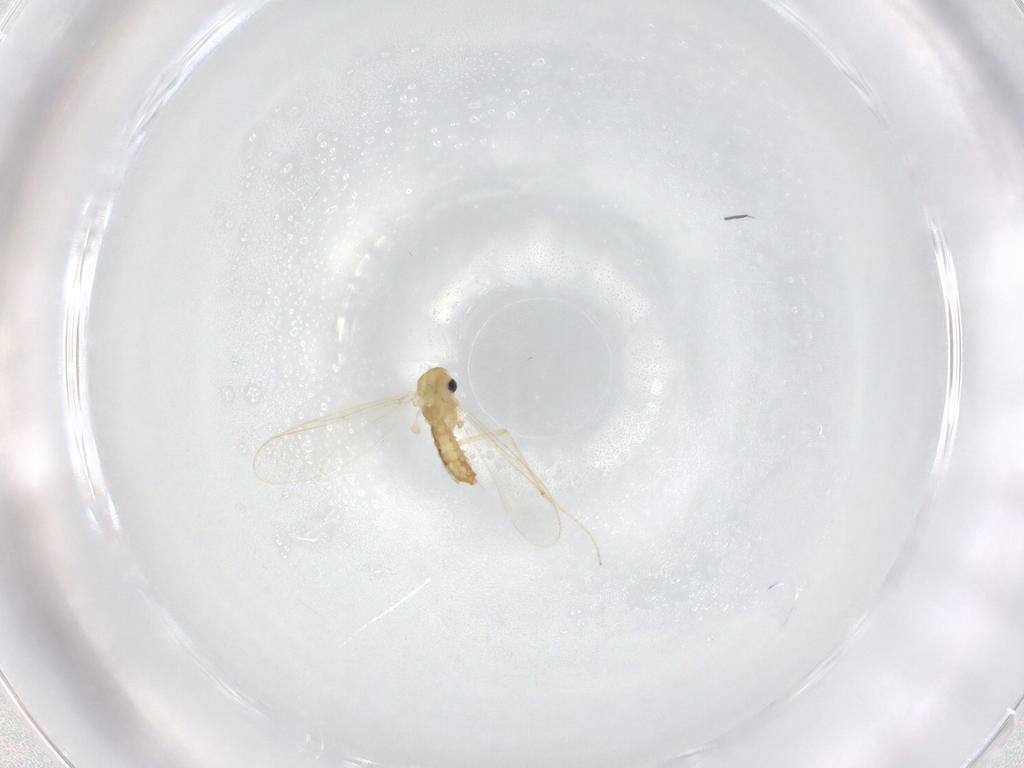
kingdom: Animalia
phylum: Arthropoda
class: Insecta
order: Diptera
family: Chironomidae
